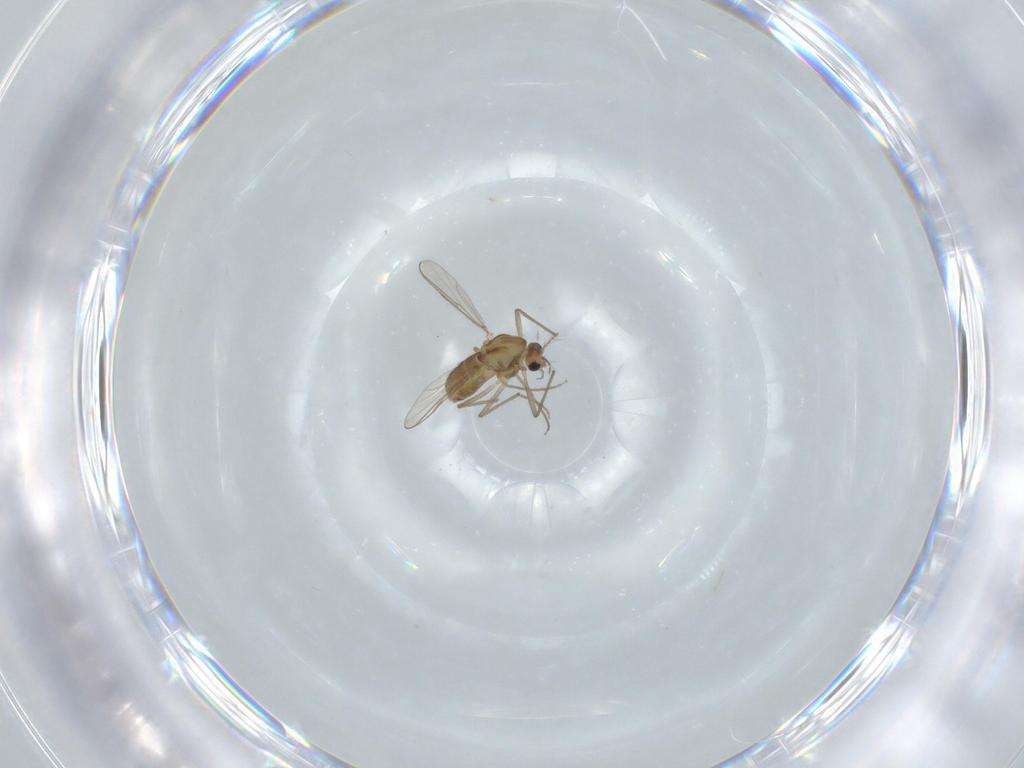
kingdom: Animalia
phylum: Arthropoda
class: Insecta
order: Diptera
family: Chironomidae
